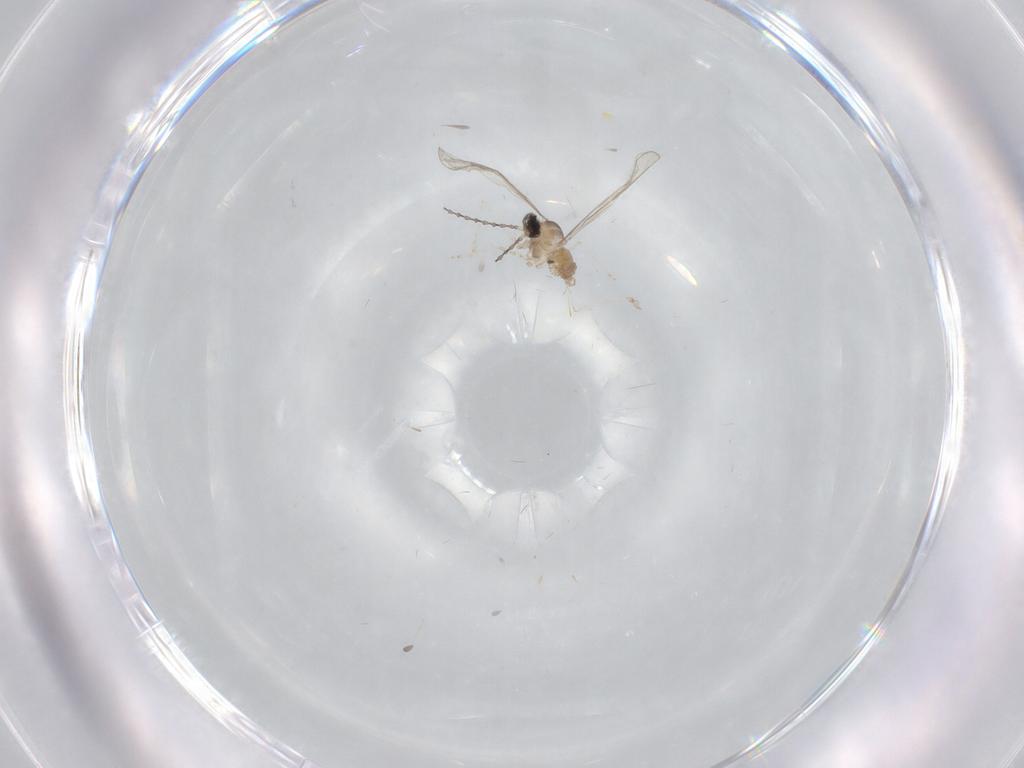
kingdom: Animalia
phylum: Arthropoda
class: Insecta
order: Diptera
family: Cecidomyiidae
